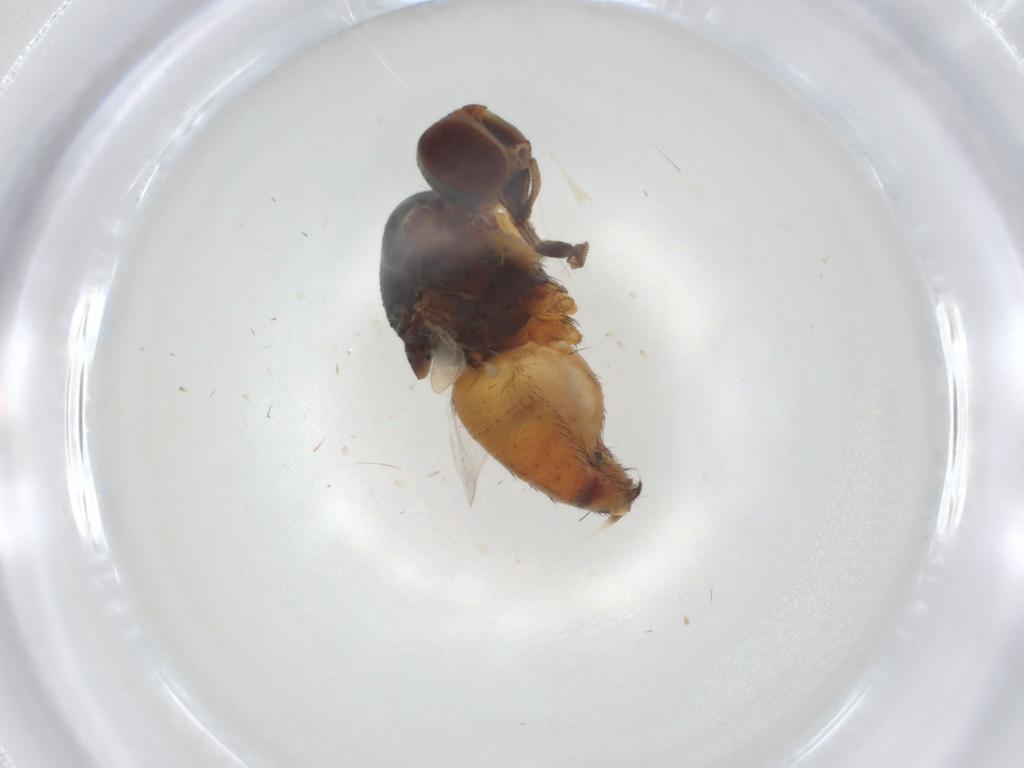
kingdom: Animalia
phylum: Arthropoda
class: Insecta
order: Diptera
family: Muscidae
